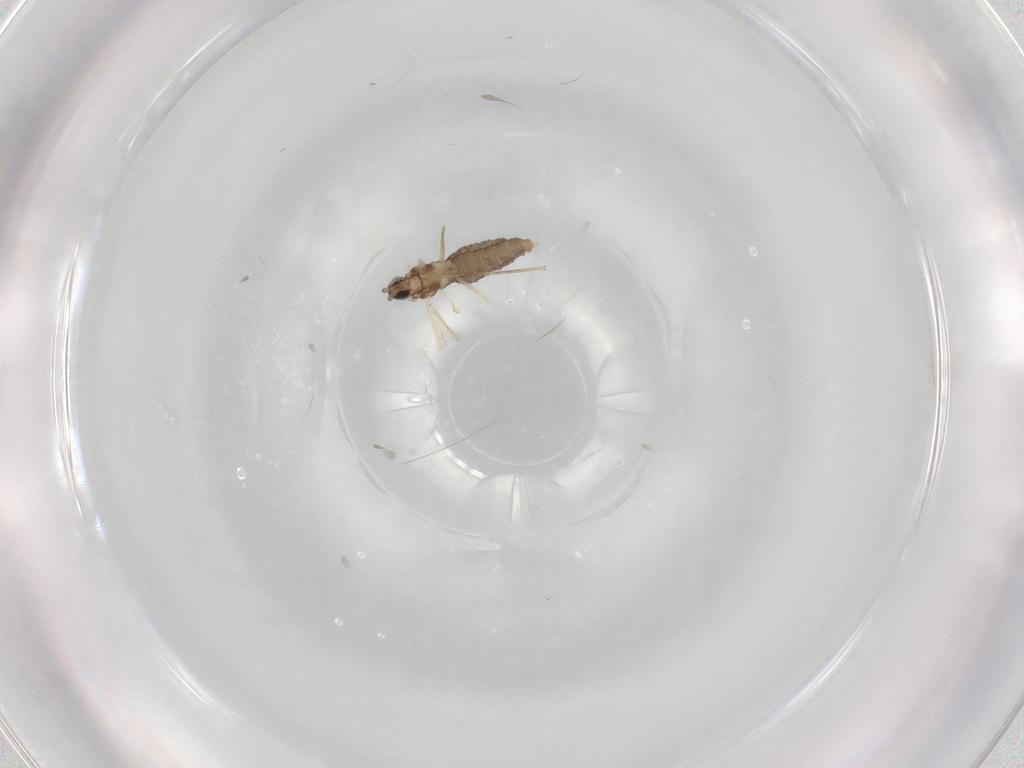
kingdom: Animalia
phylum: Arthropoda
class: Insecta
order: Diptera
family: Cecidomyiidae
